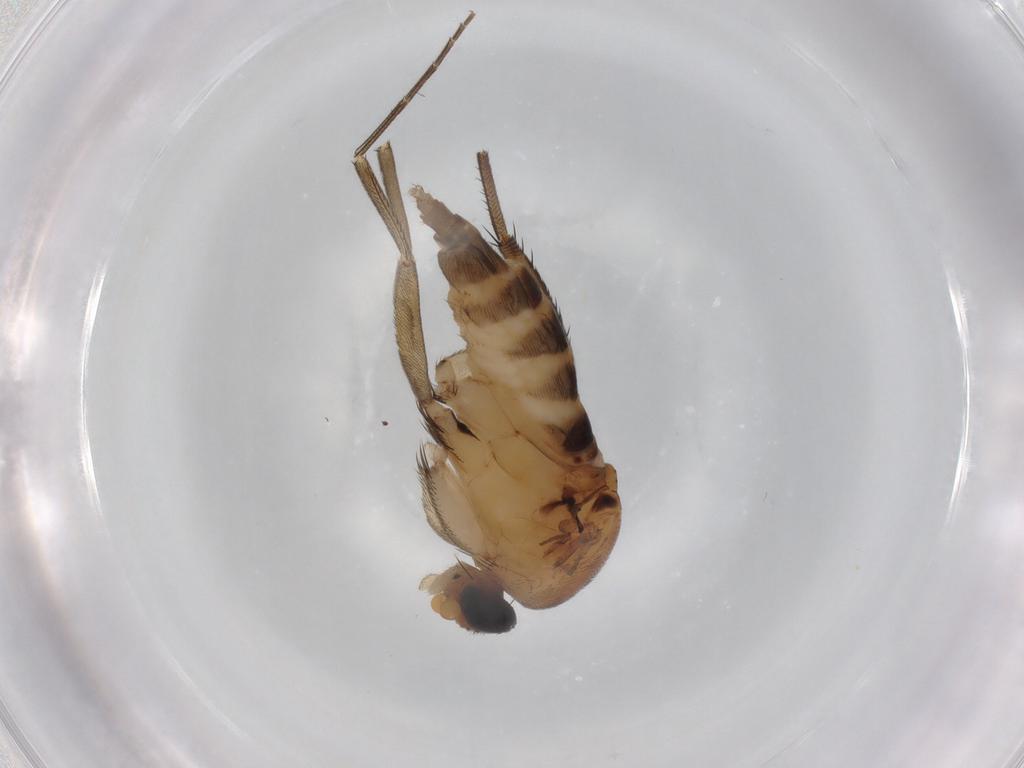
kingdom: Animalia
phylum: Arthropoda
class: Insecta
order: Diptera
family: Phoridae
